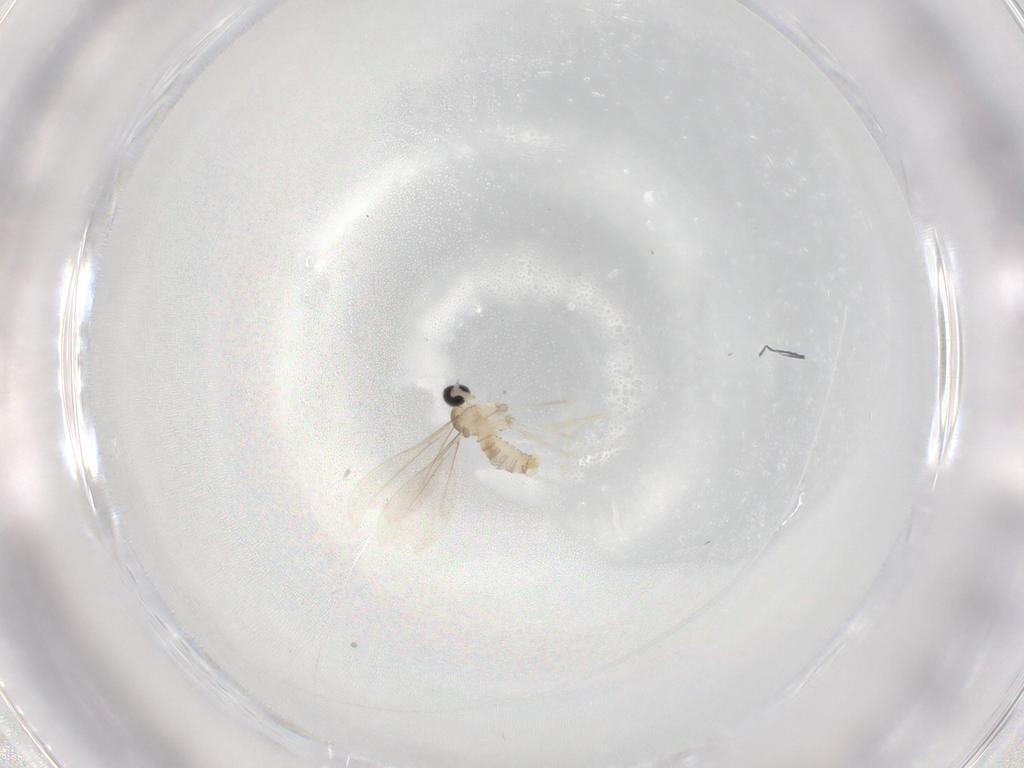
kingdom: Animalia
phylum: Arthropoda
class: Insecta
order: Diptera
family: Cecidomyiidae
